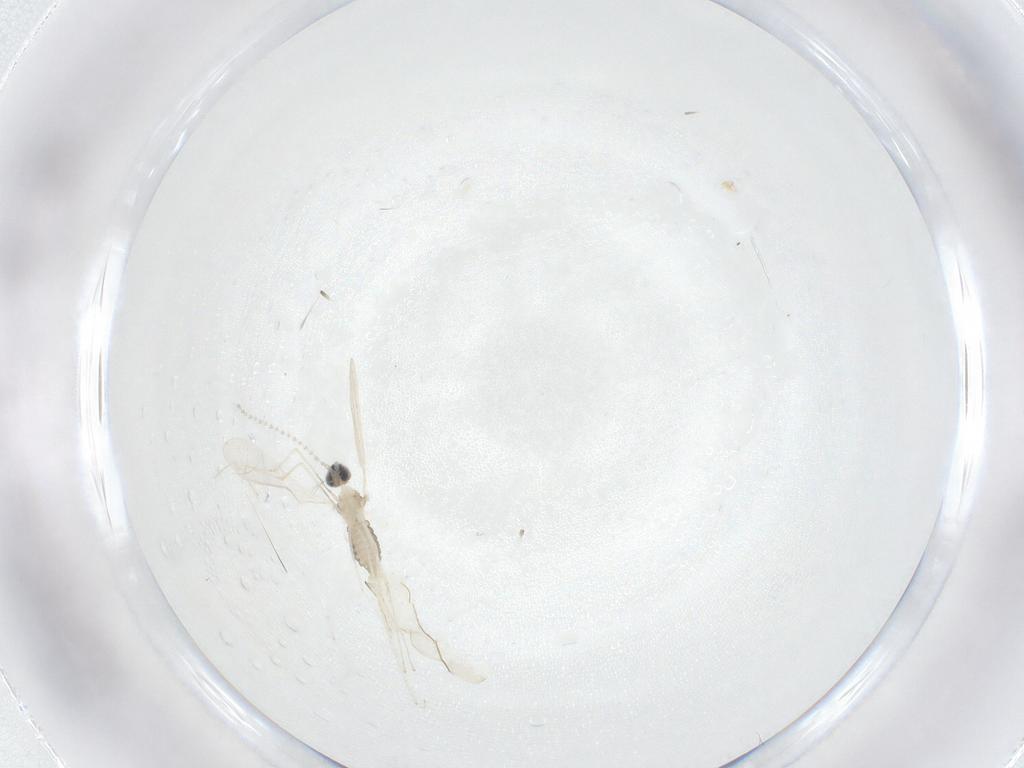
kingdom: Animalia
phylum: Arthropoda
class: Insecta
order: Diptera
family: Cecidomyiidae
